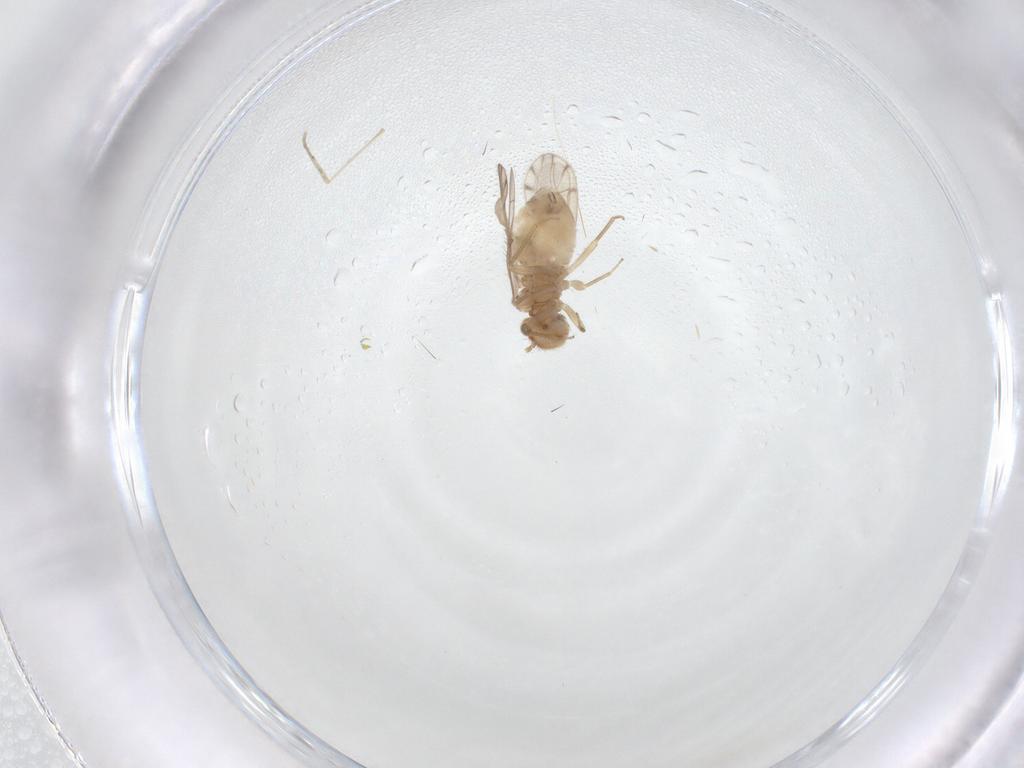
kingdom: Animalia
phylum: Arthropoda
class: Insecta
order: Psocodea
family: Ectopsocidae
